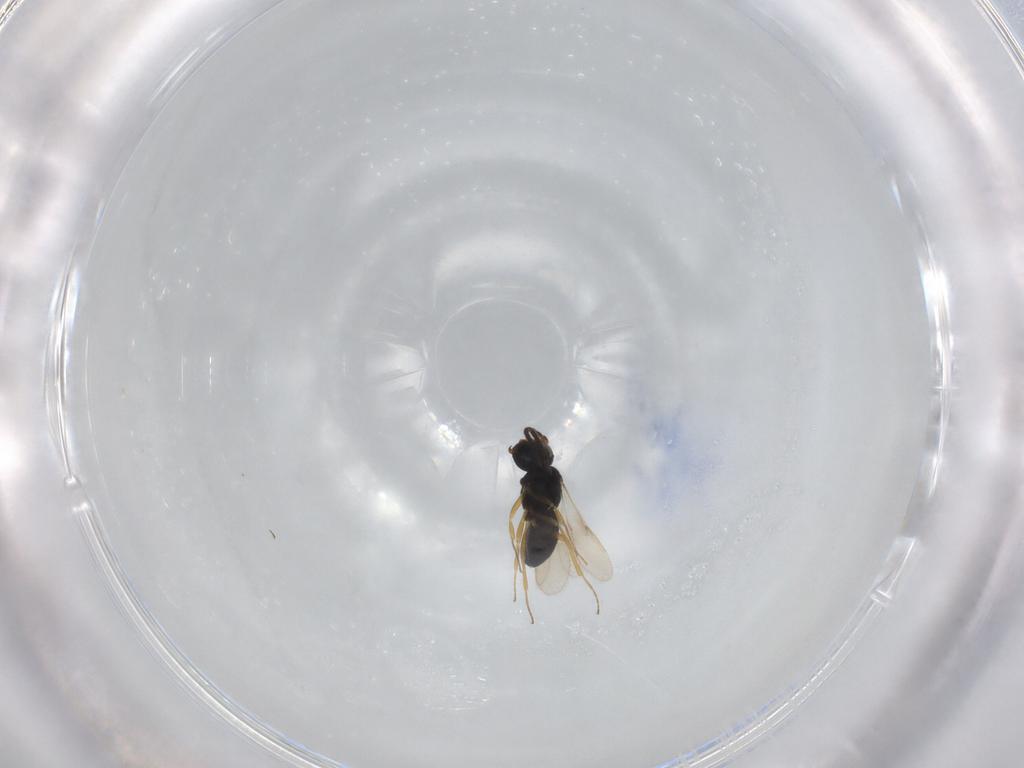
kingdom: Animalia
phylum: Arthropoda
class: Insecta
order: Hymenoptera
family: Scelionidae
